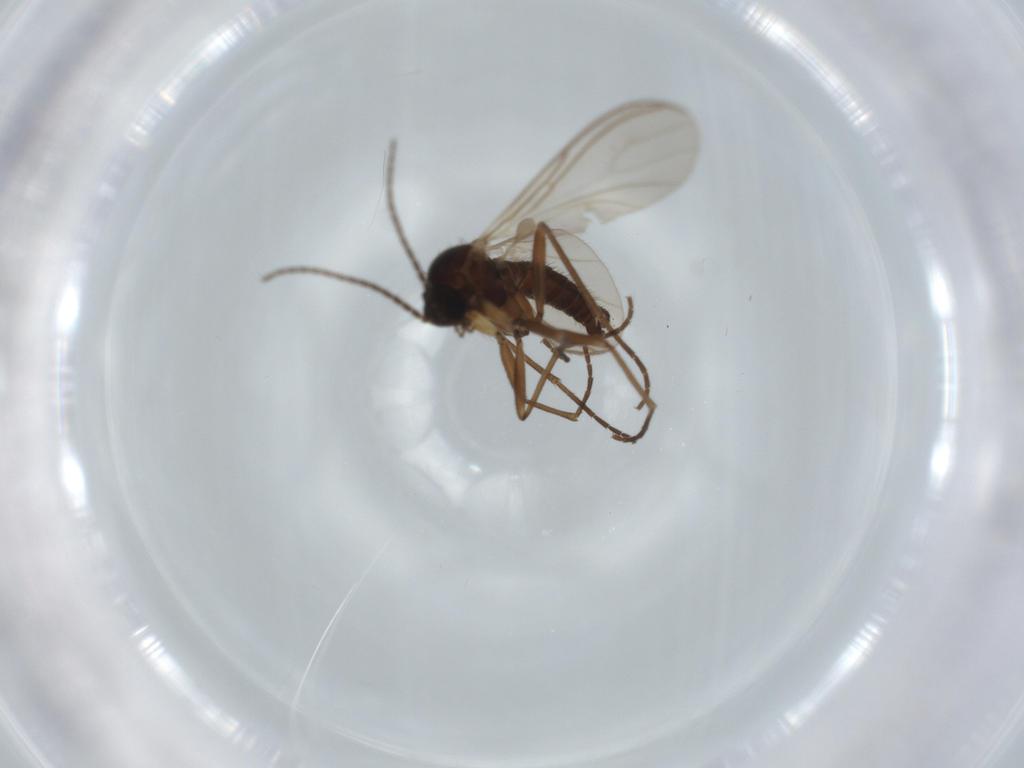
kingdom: Animalia
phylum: Arthropoda
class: Insecta
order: Diptera
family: Sciaridae
